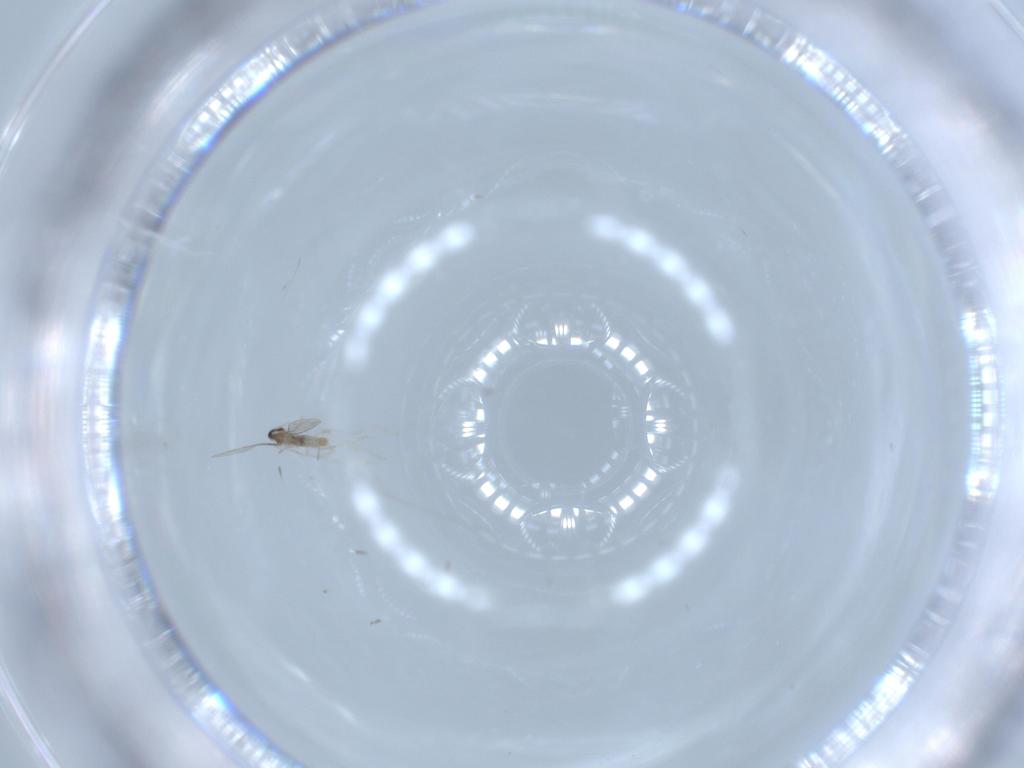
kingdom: Animalia
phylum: Arthropoda
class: Insecta
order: Diptera
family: Cecidomyiidae
